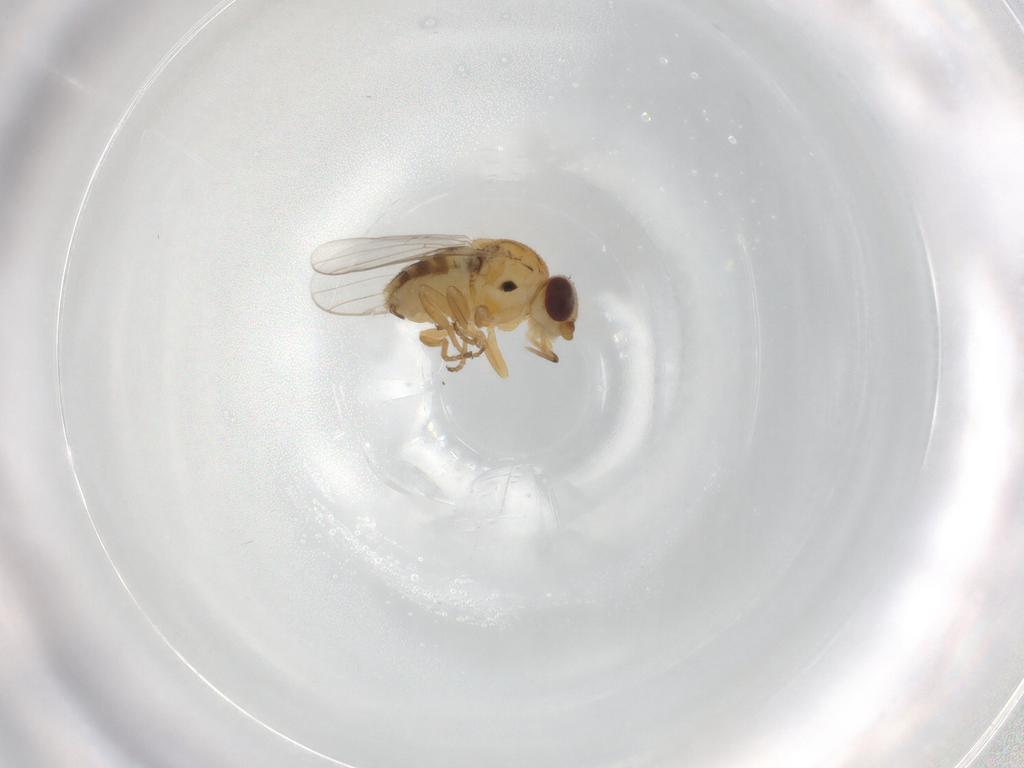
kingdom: Animalia
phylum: Arthropoda
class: Insecta
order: Diptera
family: Chloropidae
